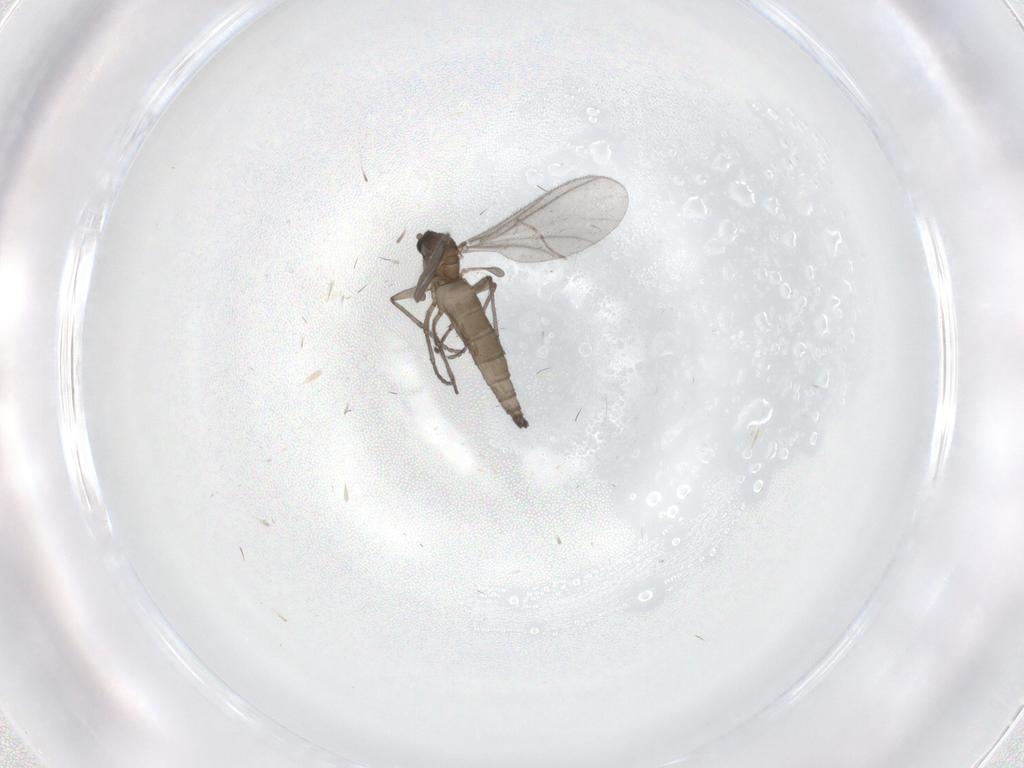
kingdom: Animalia
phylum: Arthropoda
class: Insecta
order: Diptera
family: Sciaridae
